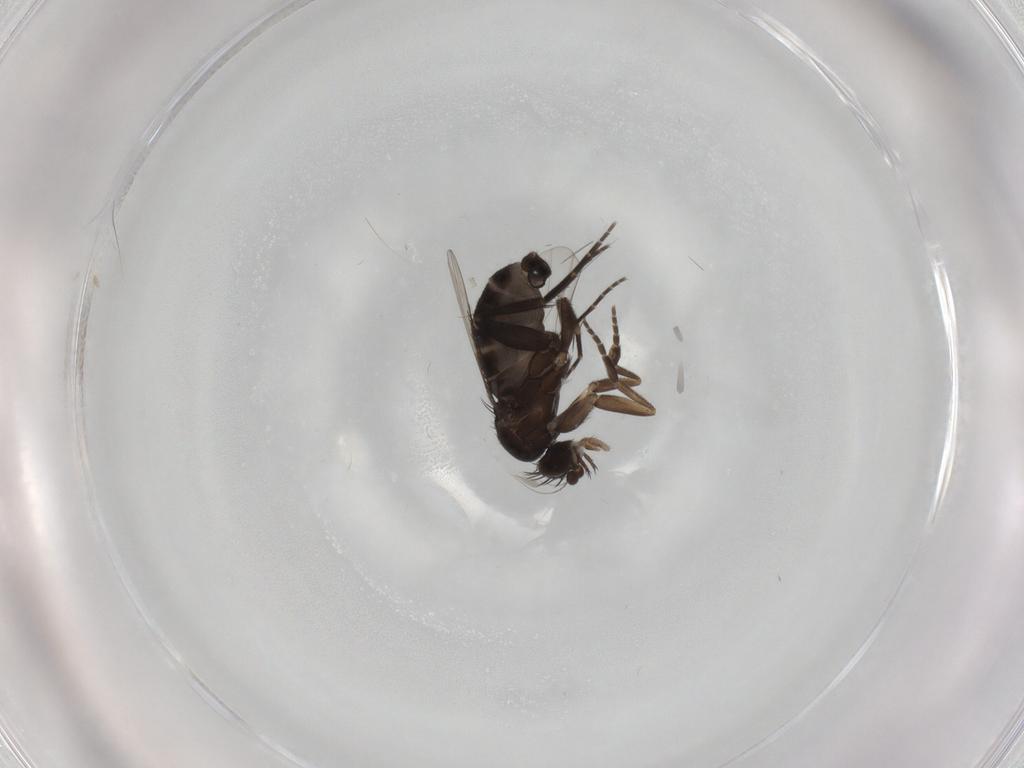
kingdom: Animalia
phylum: Arthropoda
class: Insecta
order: Diptera
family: Phoridae
